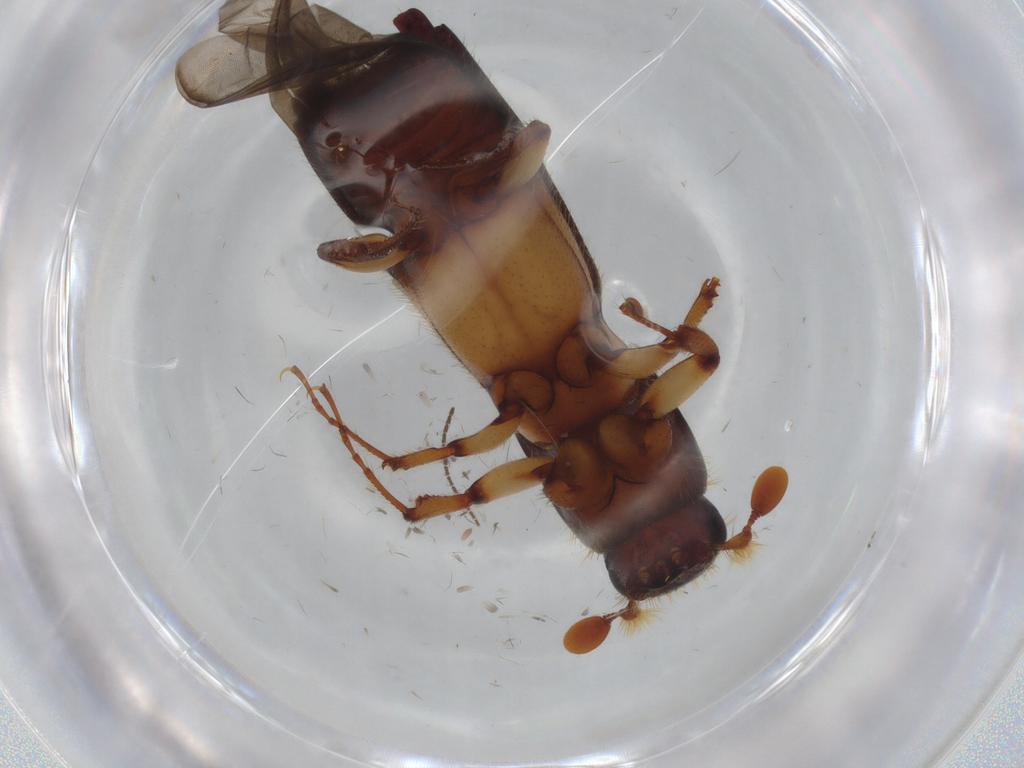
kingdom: Animalia
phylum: Arthropoda
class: Insecta
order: Coleoptera
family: Curculionidae
